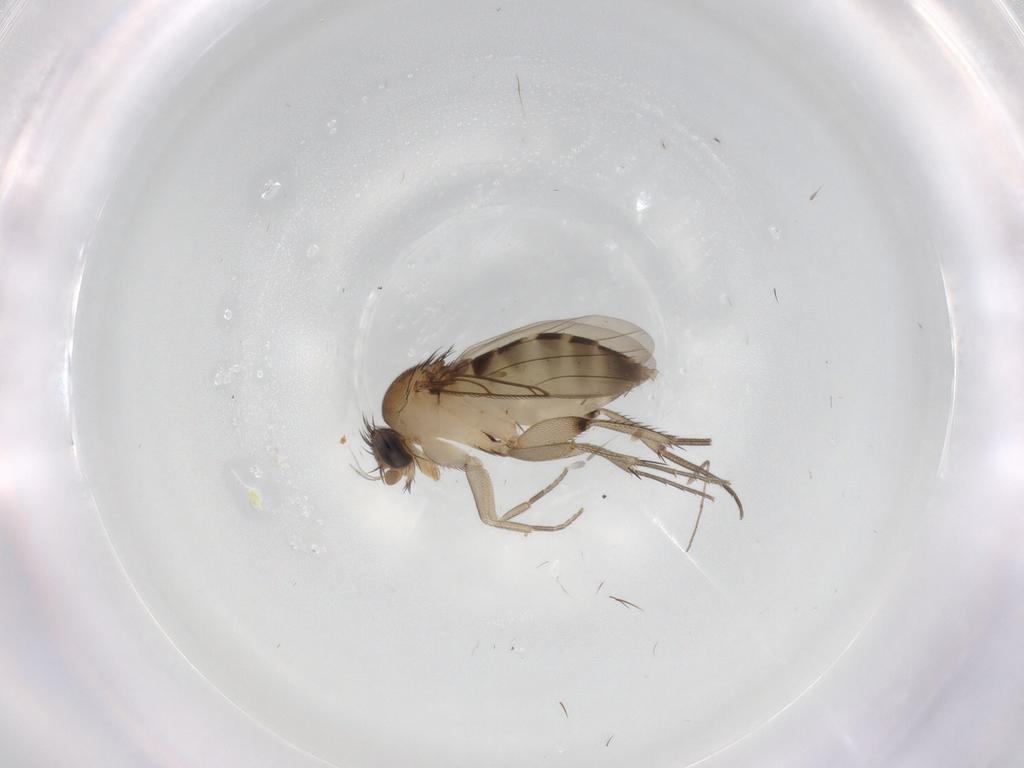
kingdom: Animalia
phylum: Arthropoda
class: Insecta
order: Diptera
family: Phoridae
